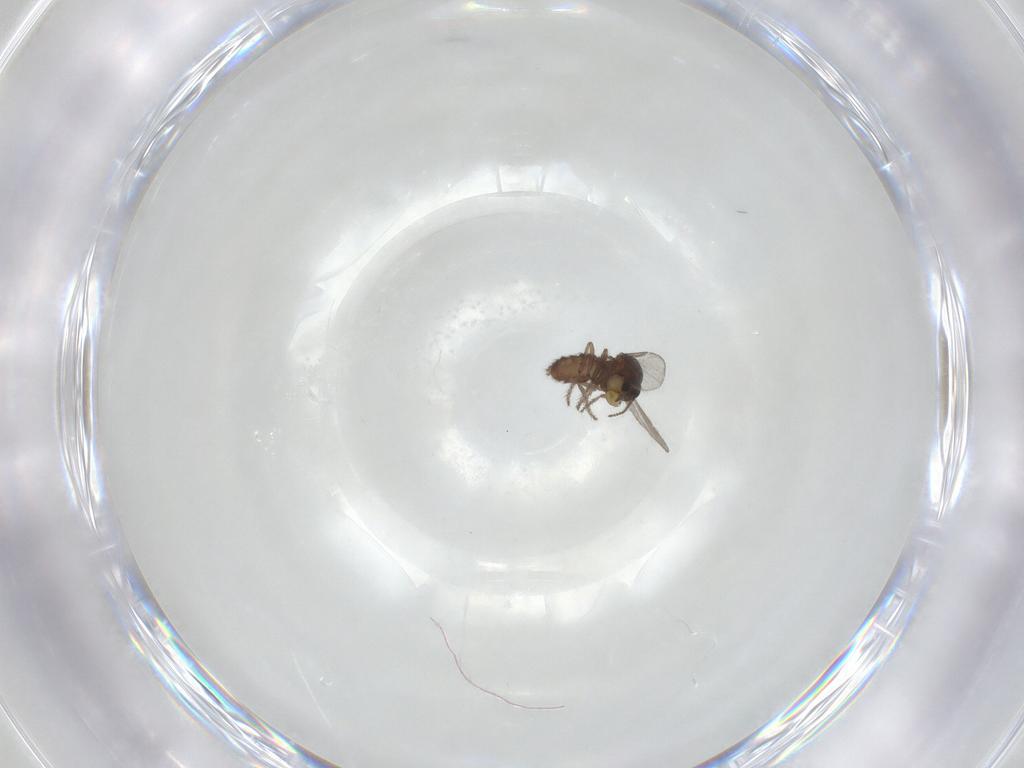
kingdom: Animalia
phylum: Arthropoda
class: Insecta
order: Diptera
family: Ceratopogonidae
